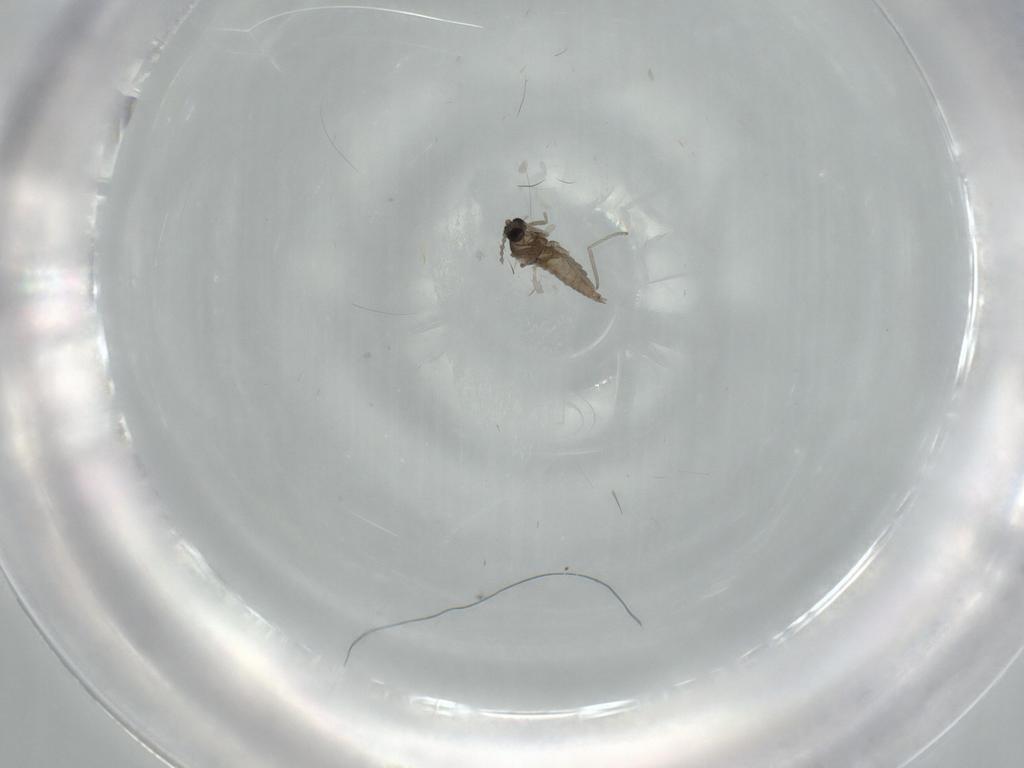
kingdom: Animalia
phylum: Arthropoda
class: Insecta
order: Diptera
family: Cecidomyiidae
